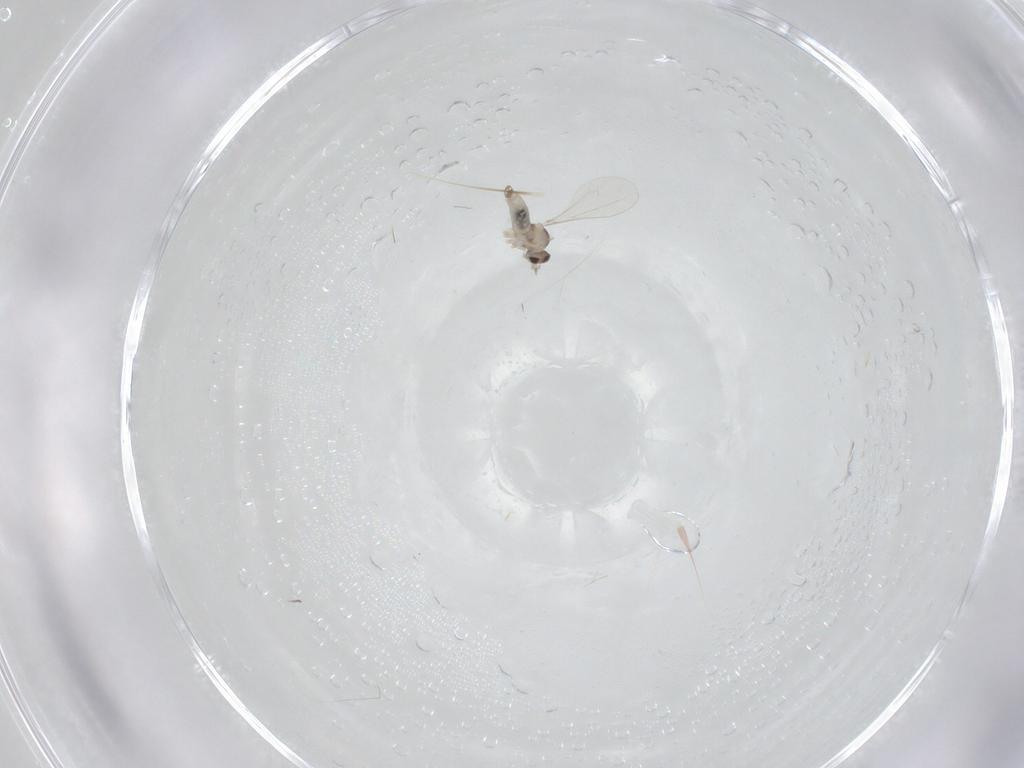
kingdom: Animalia
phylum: Arthropoda
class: Insecta
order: Diptera
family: Cecidomyiidae
